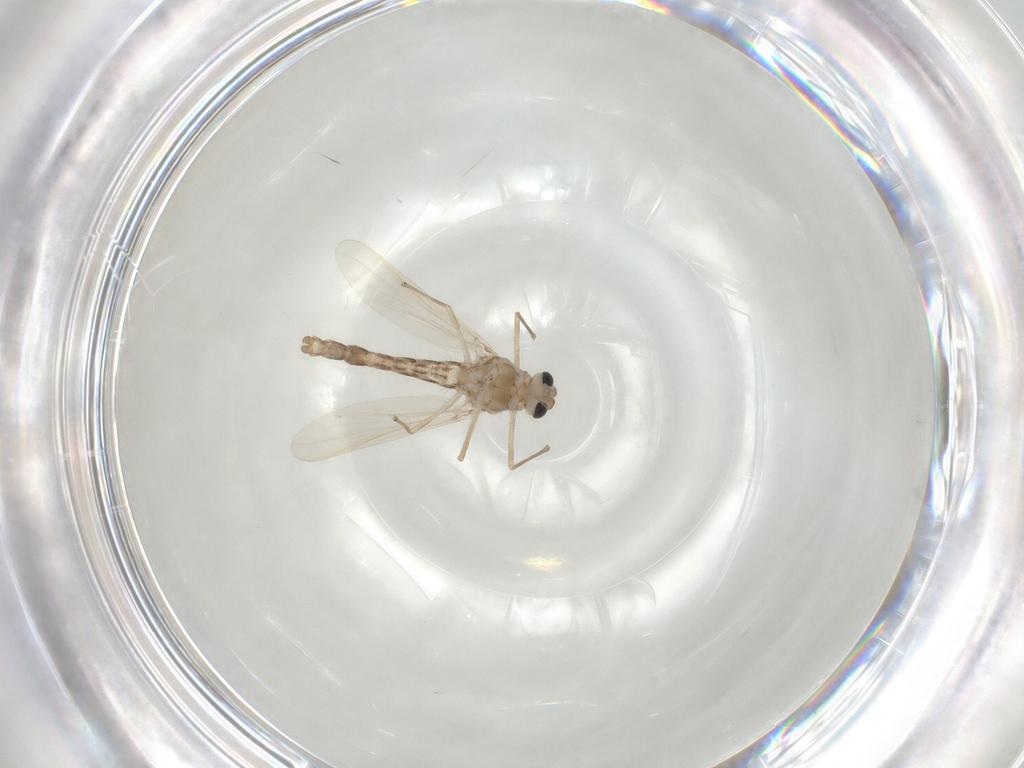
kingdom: Animalia
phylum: Arthropoda
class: Insecta
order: Diptera
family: Chironomidae
